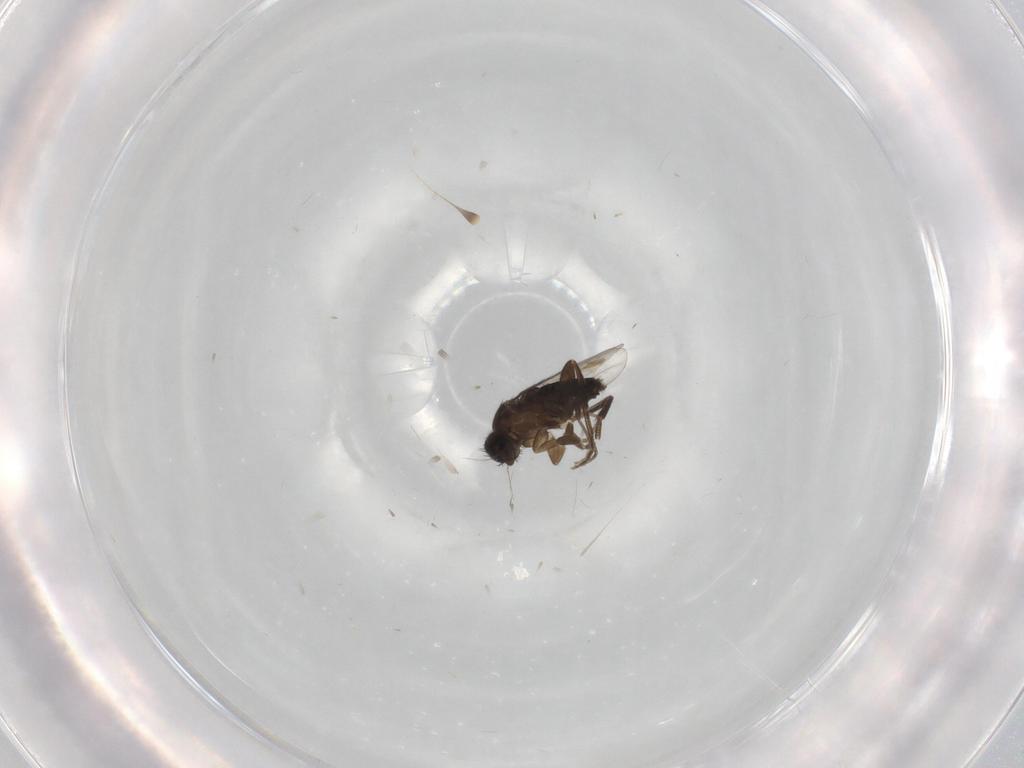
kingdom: Animalia
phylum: Arthropoda
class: Insecta
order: Diptera
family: Phoridae
